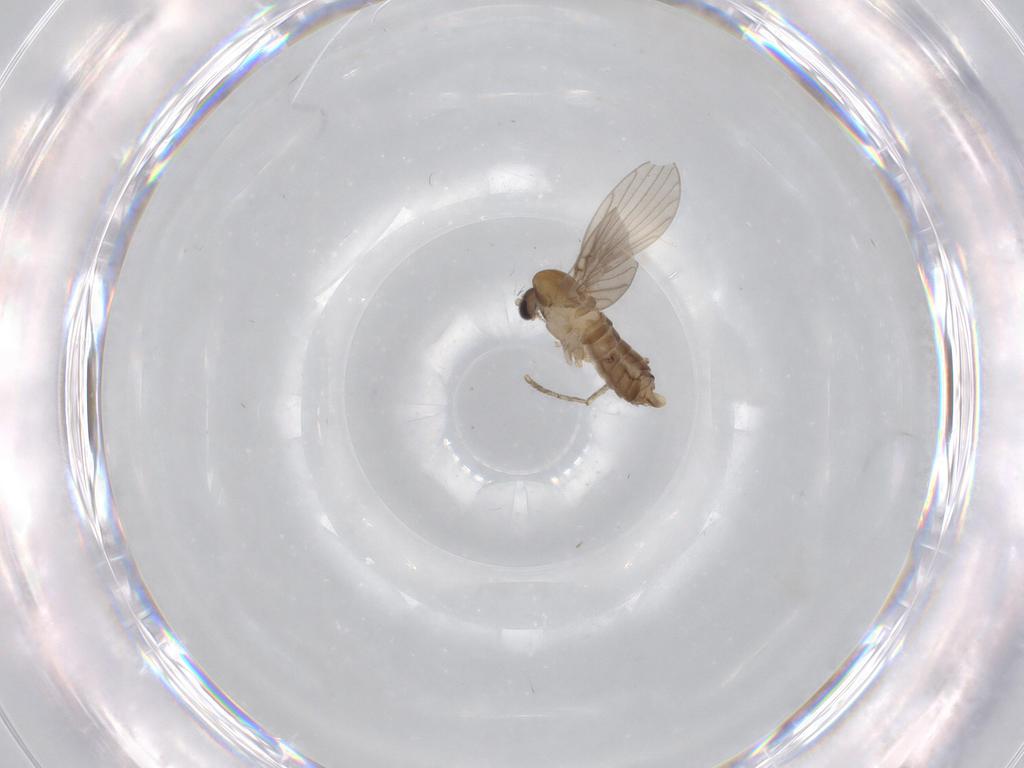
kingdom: Animalia
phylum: Arthropoda
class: Insecta
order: Diptera
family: Psychodidae
